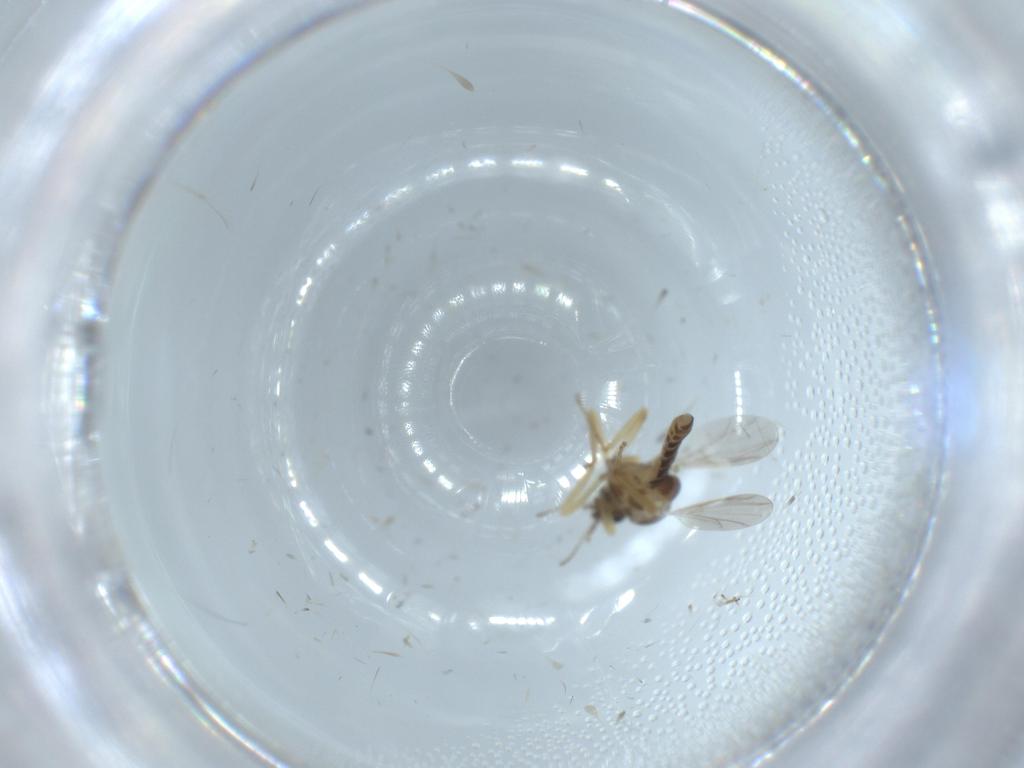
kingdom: Animalia
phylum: Arthropoda
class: Insecta
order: Diptera
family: Ceratopogonidae
